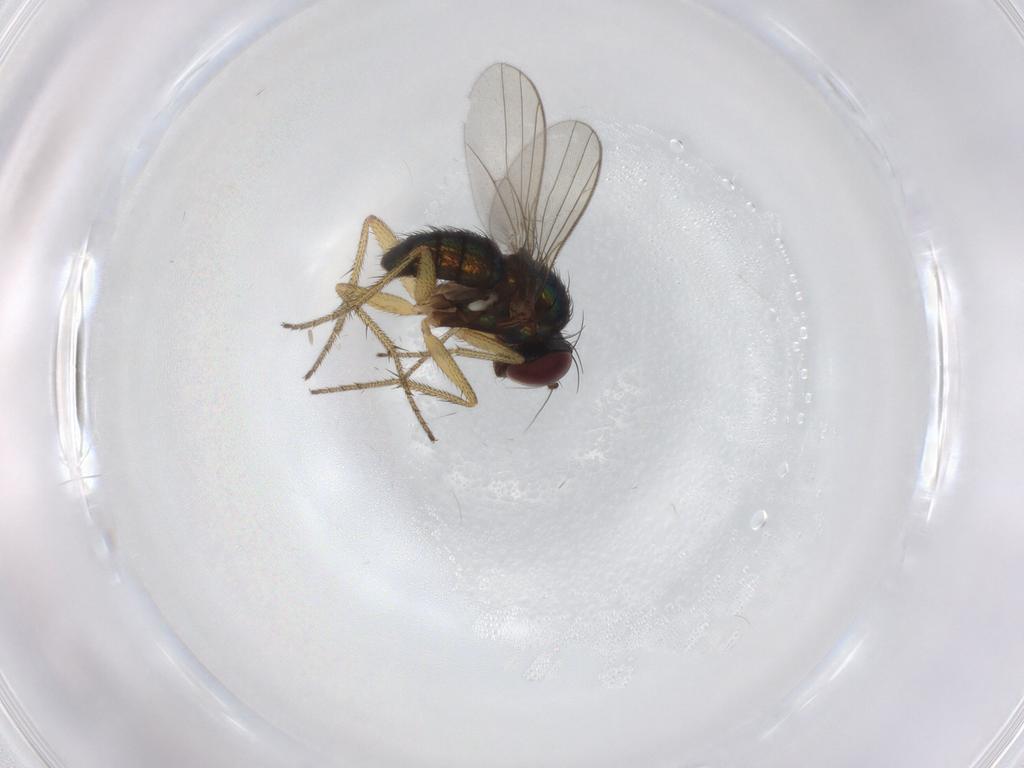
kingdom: Animalia
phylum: Arthropoda
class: Insecta
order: Diptera
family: Dolichopodidae
